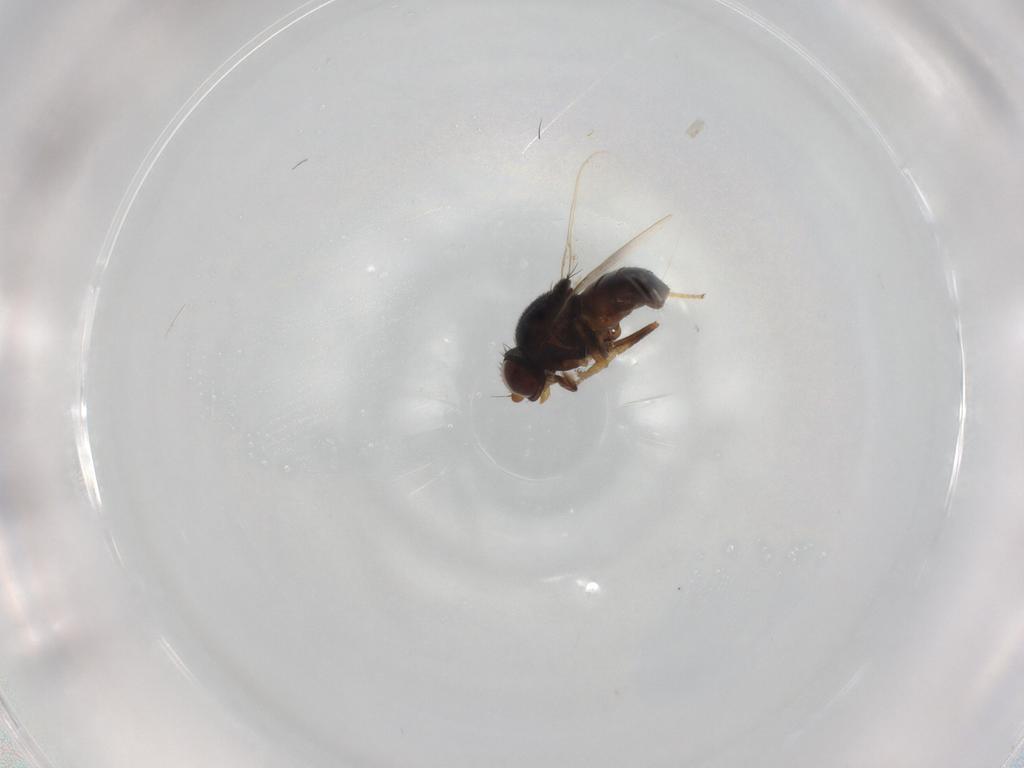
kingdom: Animalia
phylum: Arthropoda
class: Insecta
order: Diptera
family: Chloropidae
